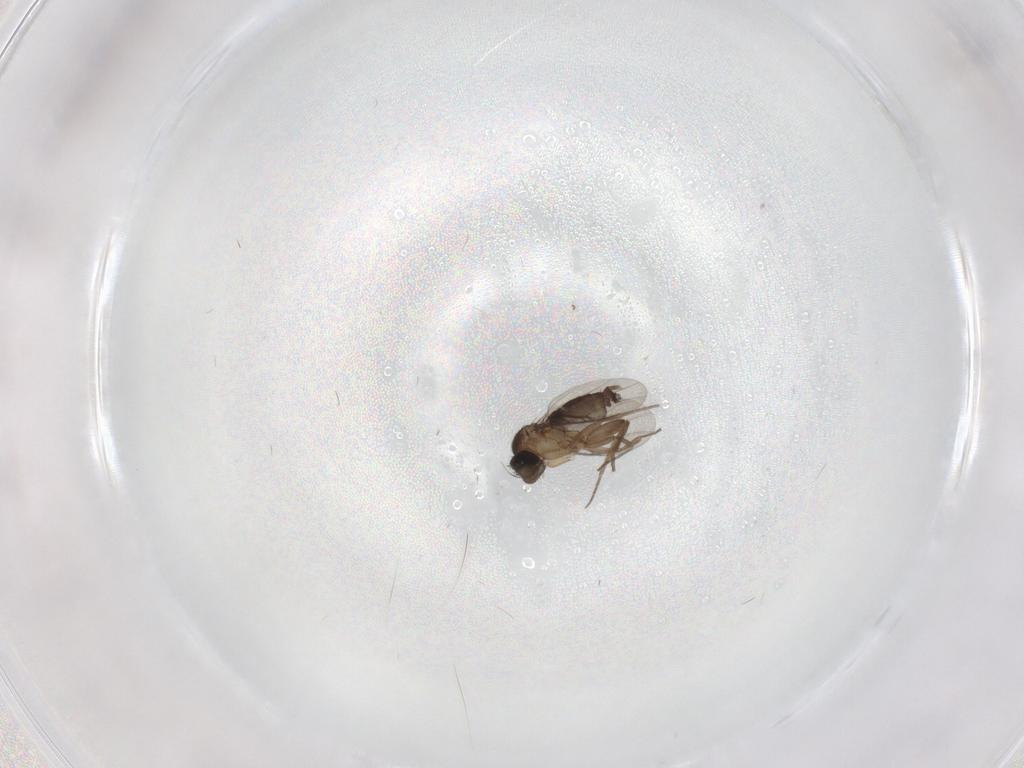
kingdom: Animalia
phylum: Arthropoda
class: Insecta
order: Diptera
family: Phoridae
